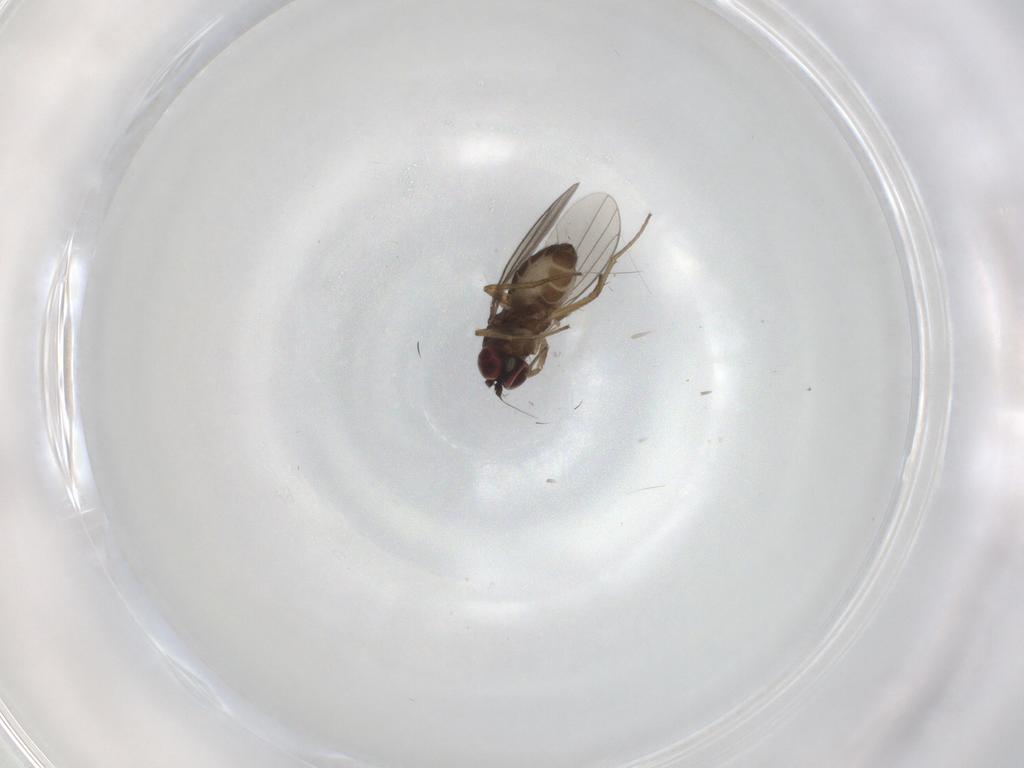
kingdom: Animalia
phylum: Arthropoda
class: Insecta
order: Diptera
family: Dolichopodidae
